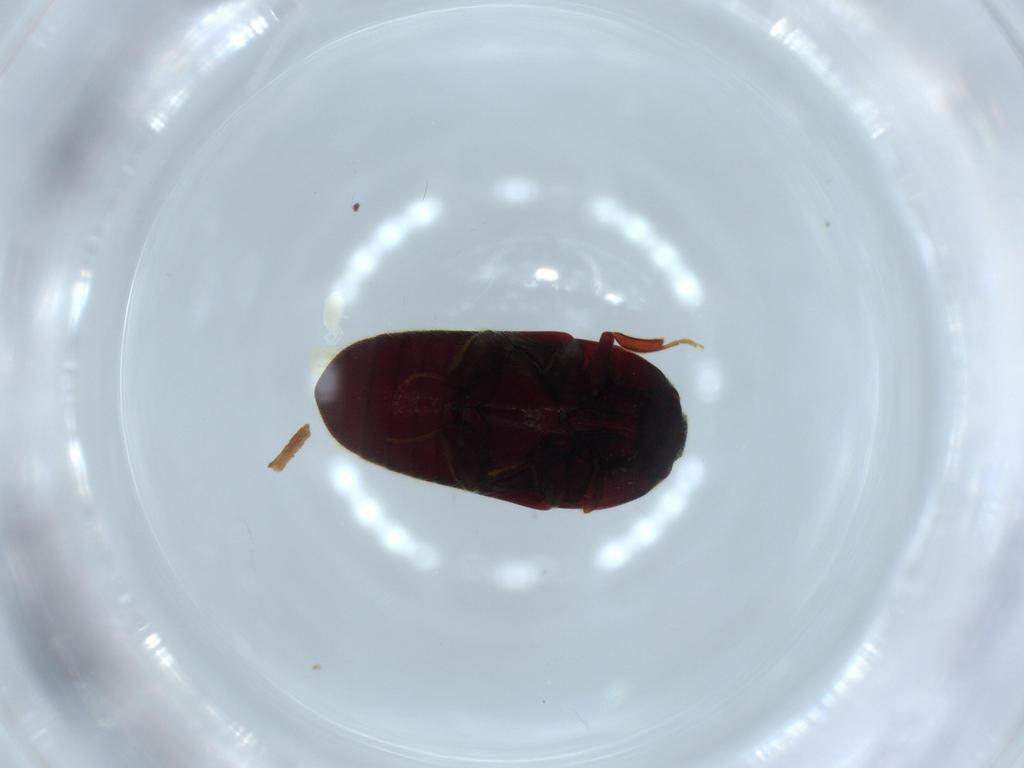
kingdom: Animalia
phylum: Arthropoda
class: Insecta
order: Coleoptera
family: Throscidae
